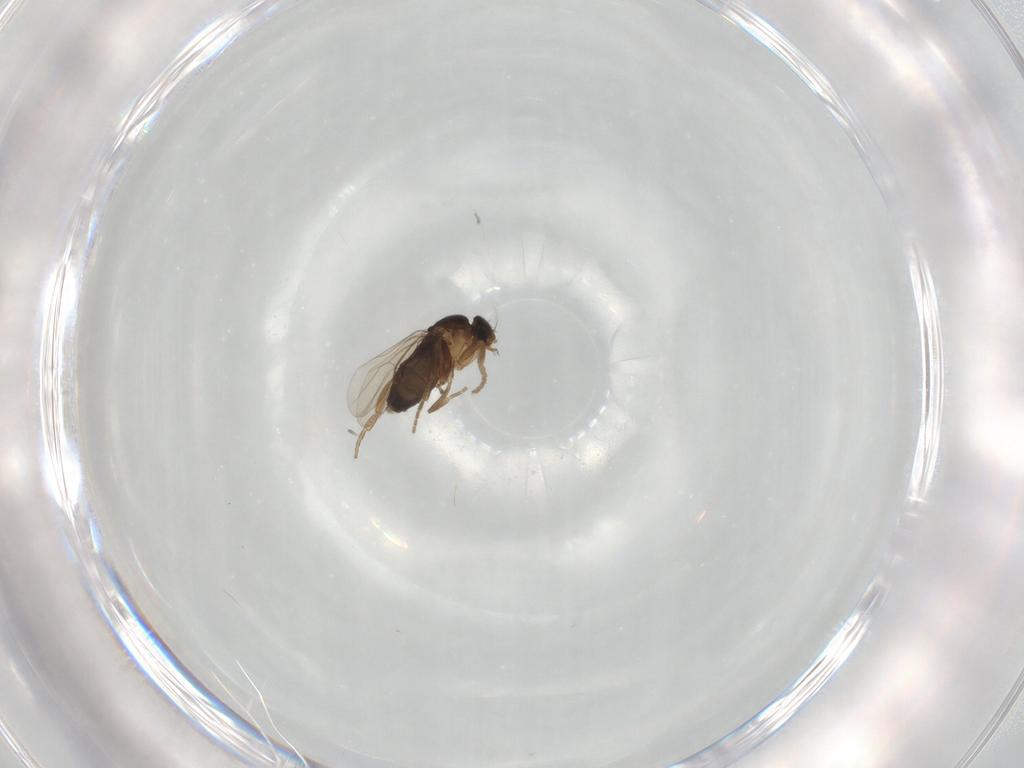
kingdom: Animalia
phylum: Arthropoda
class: Insecta
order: Diptera
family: Phoridae
